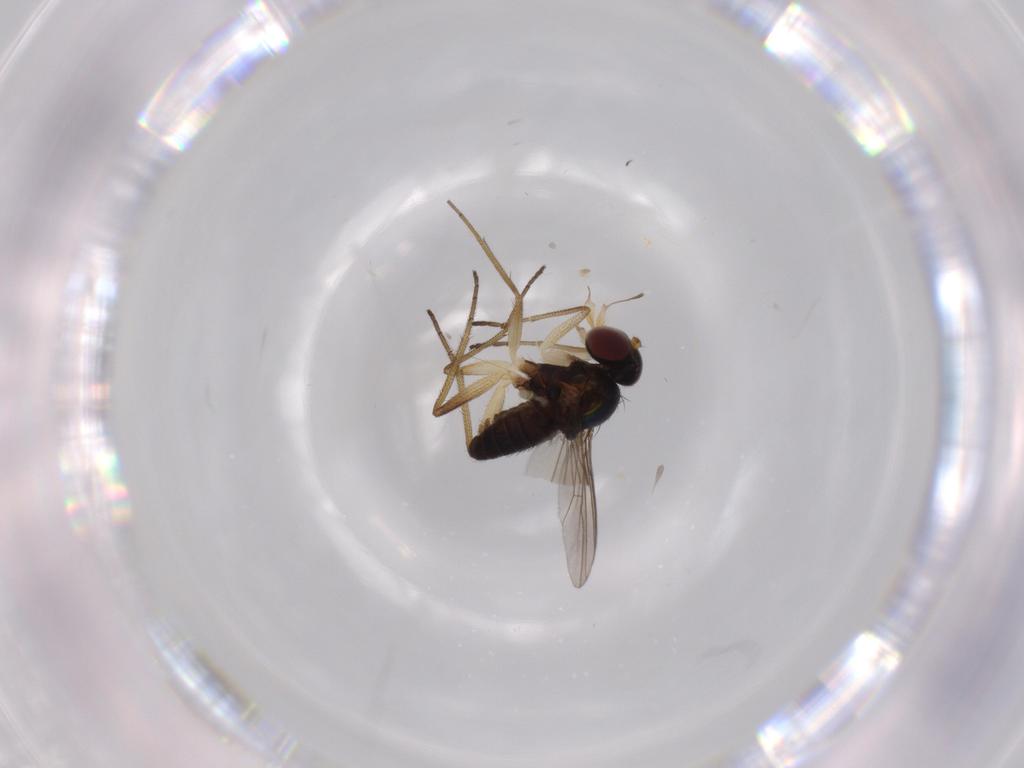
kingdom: Animalia
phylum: Arthropoda
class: Insecta
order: Diptera
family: Dolichopodidae
